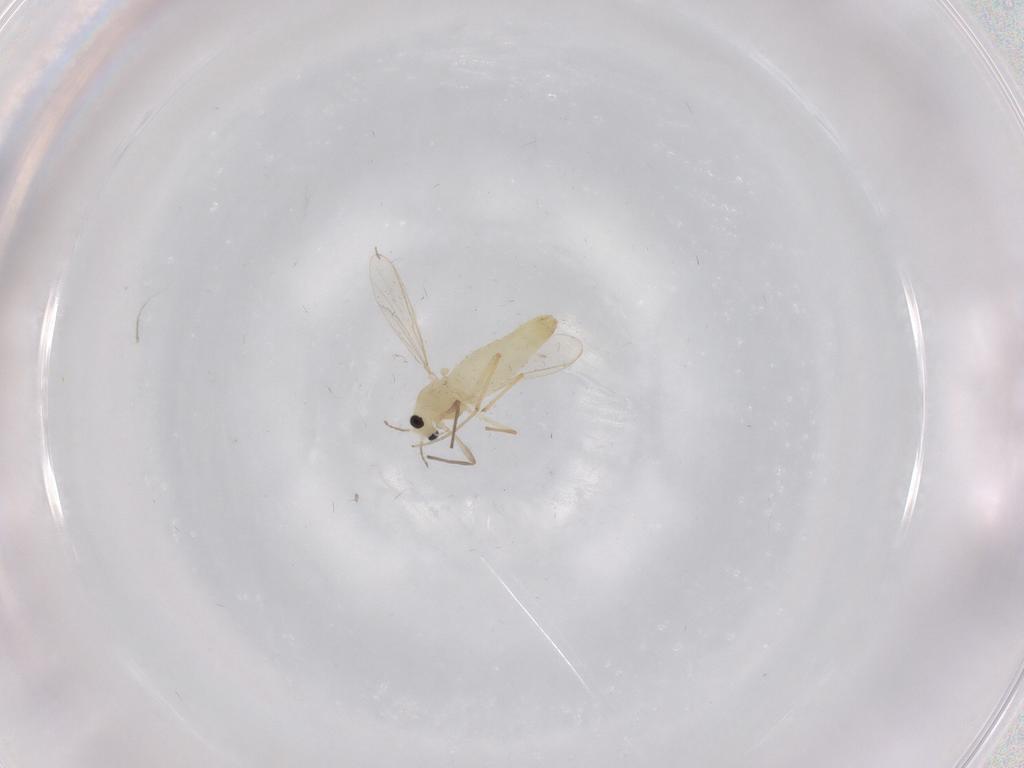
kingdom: Animalia
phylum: Arthropoda
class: Insecta
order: Diptera
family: Chironomidae
